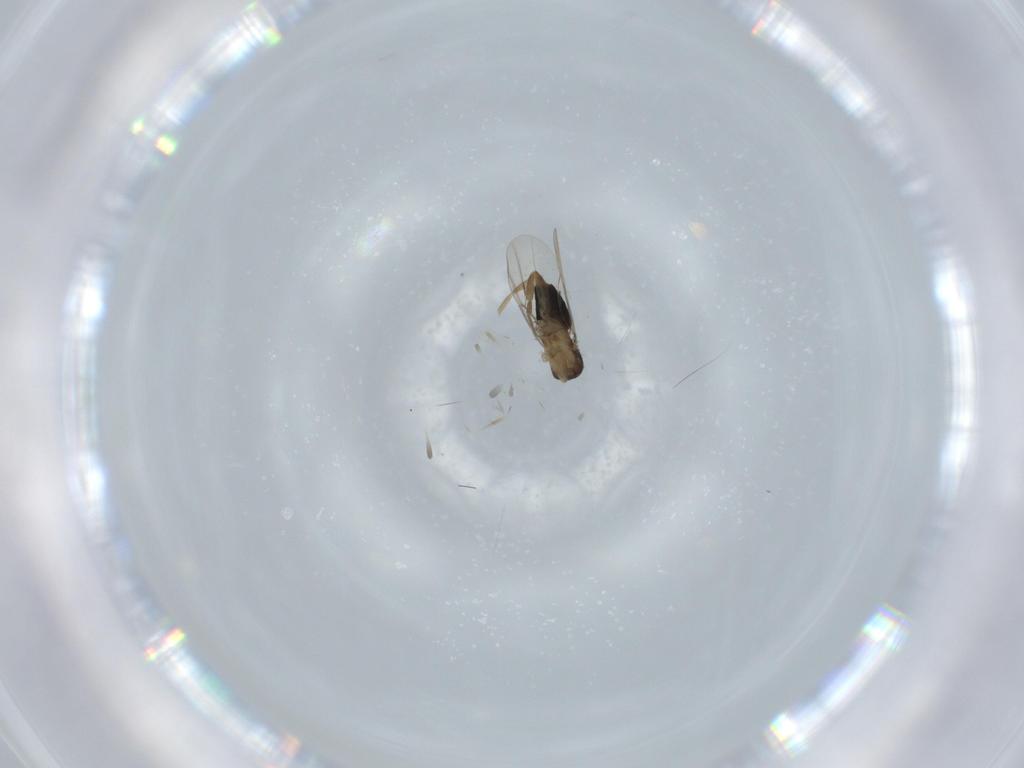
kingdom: Animalia
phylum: Arthropoda
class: Insecta
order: Diptera
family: Phoridae
